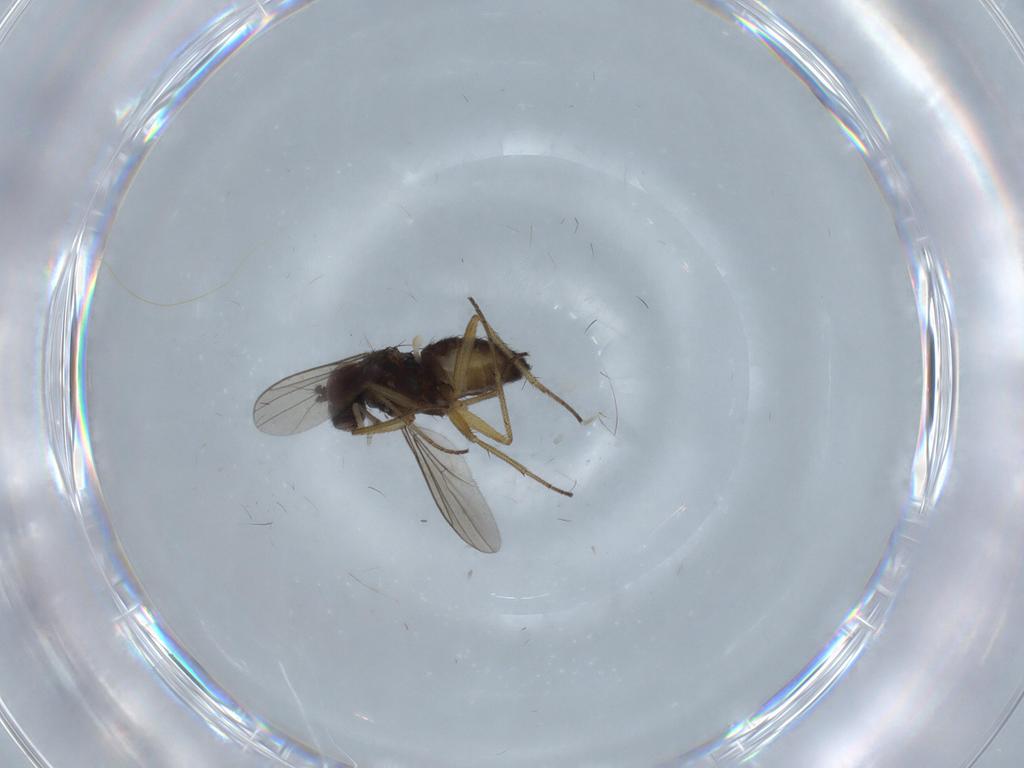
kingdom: Animalia
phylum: Arthropoda
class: Insecta
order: Diptera
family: Dolichopodidae
